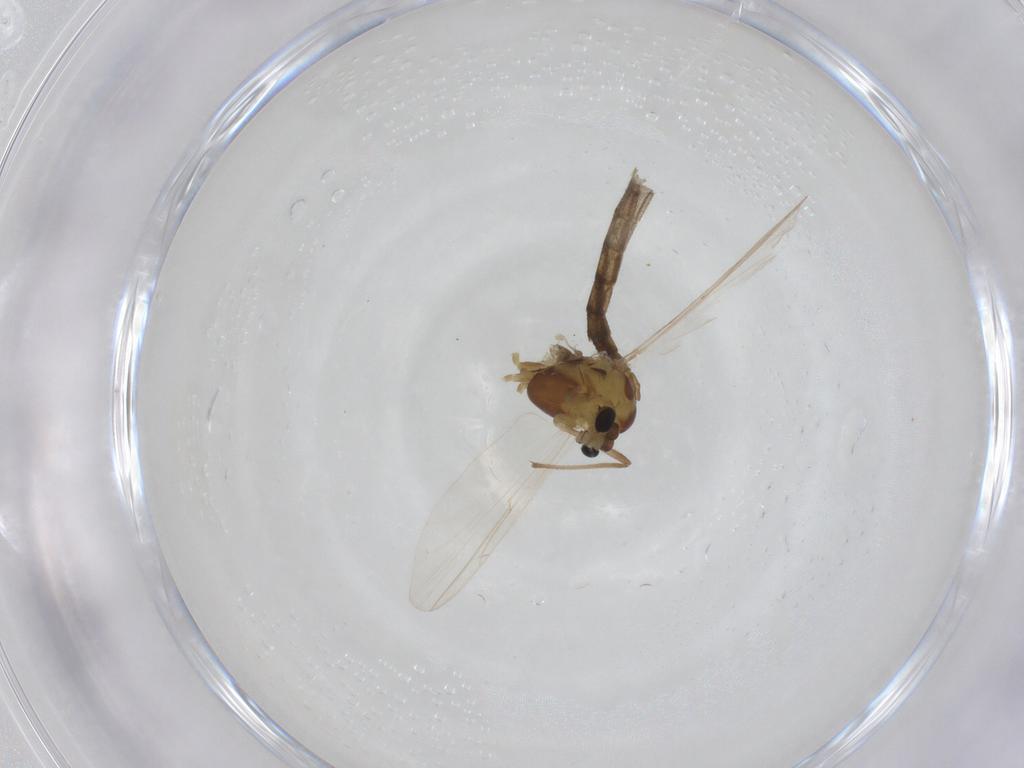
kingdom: Animalia
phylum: Arthropoda
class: Insecta
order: Diptera
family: Chironomidae
